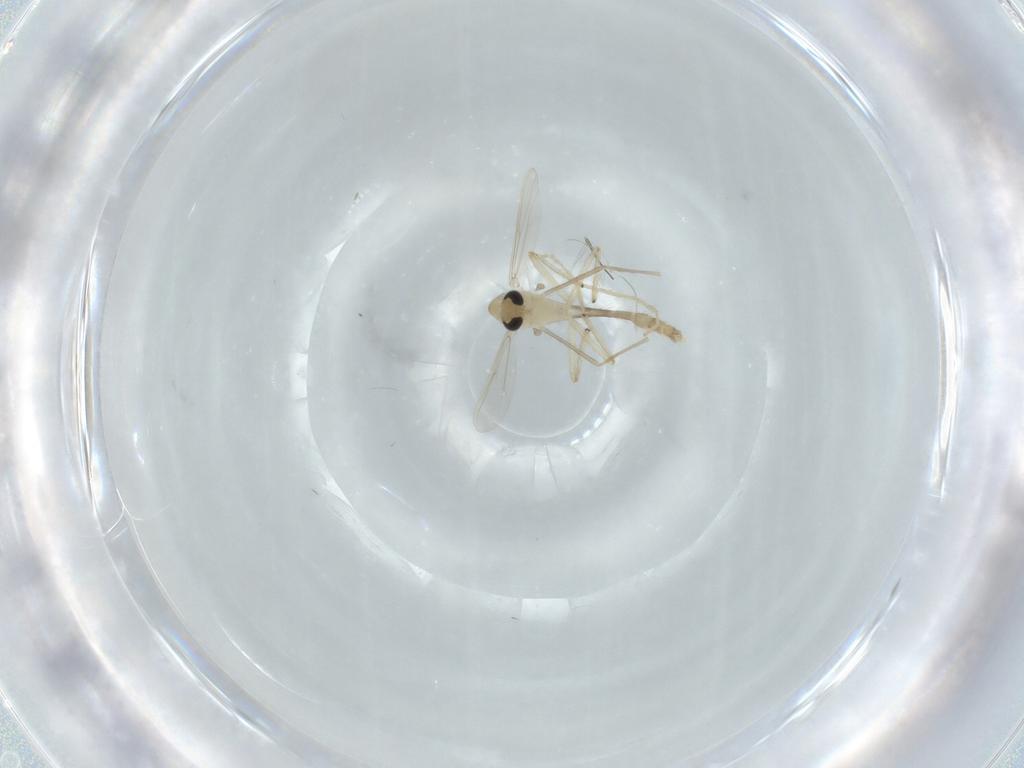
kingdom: Animalia
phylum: Arthropoda
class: Insecta
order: Diptera
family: Chironomidae
